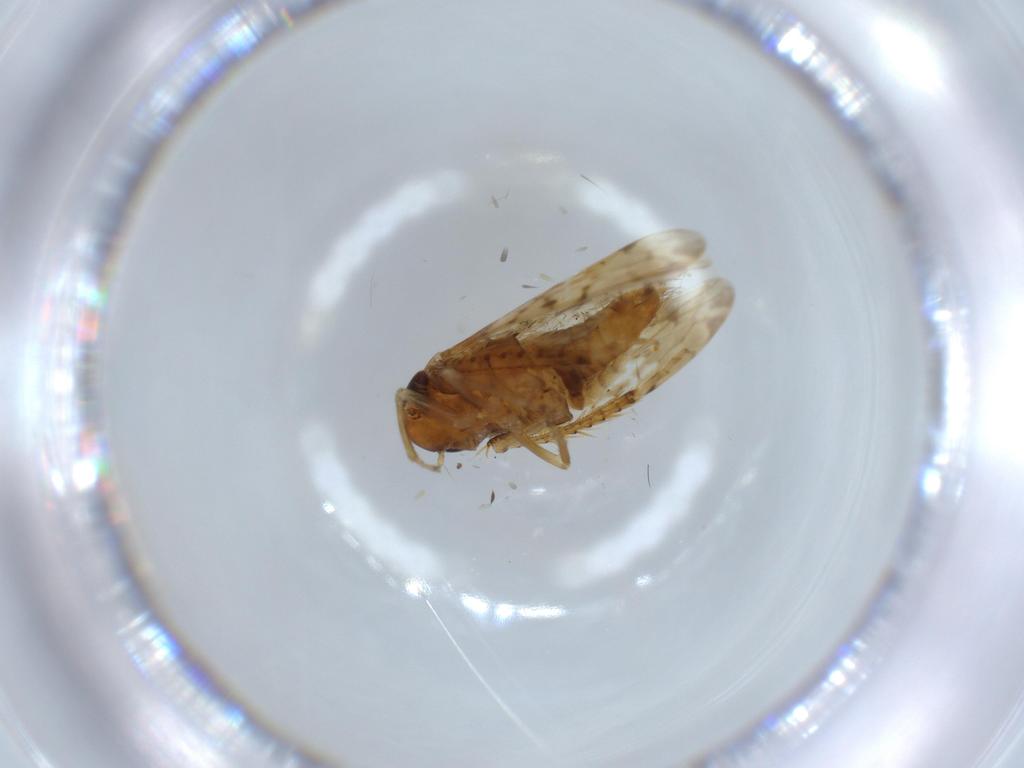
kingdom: Animalia
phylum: Arthropoda
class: Insecta
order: Hemiptera
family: Cicadellidae
